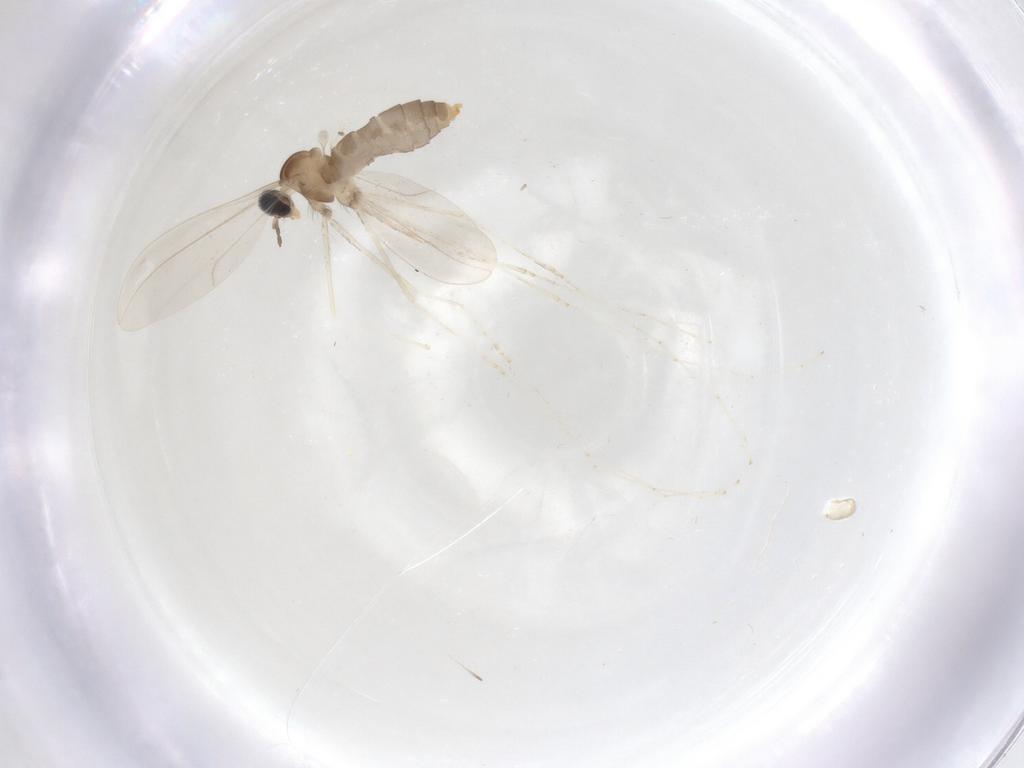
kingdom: Animalia
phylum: Arthropoda
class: Insecta
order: Diptera
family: Cecidomyiidae
